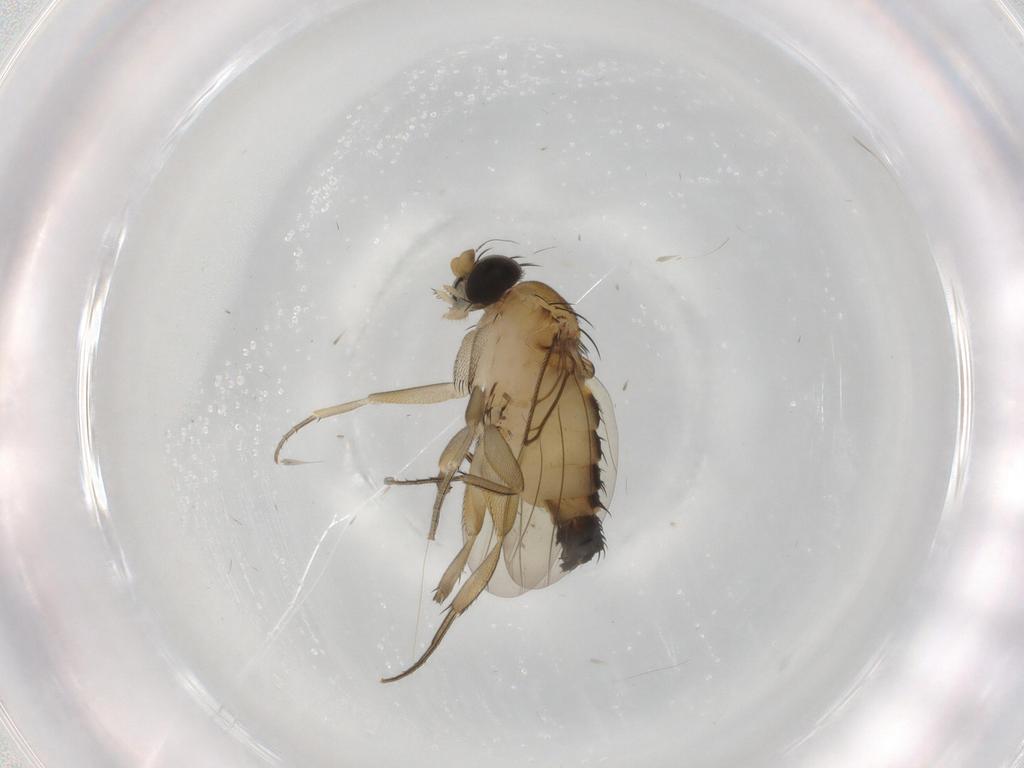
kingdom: Animalia
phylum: Arthropoda
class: Insecta
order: Diptera
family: Phoridae
